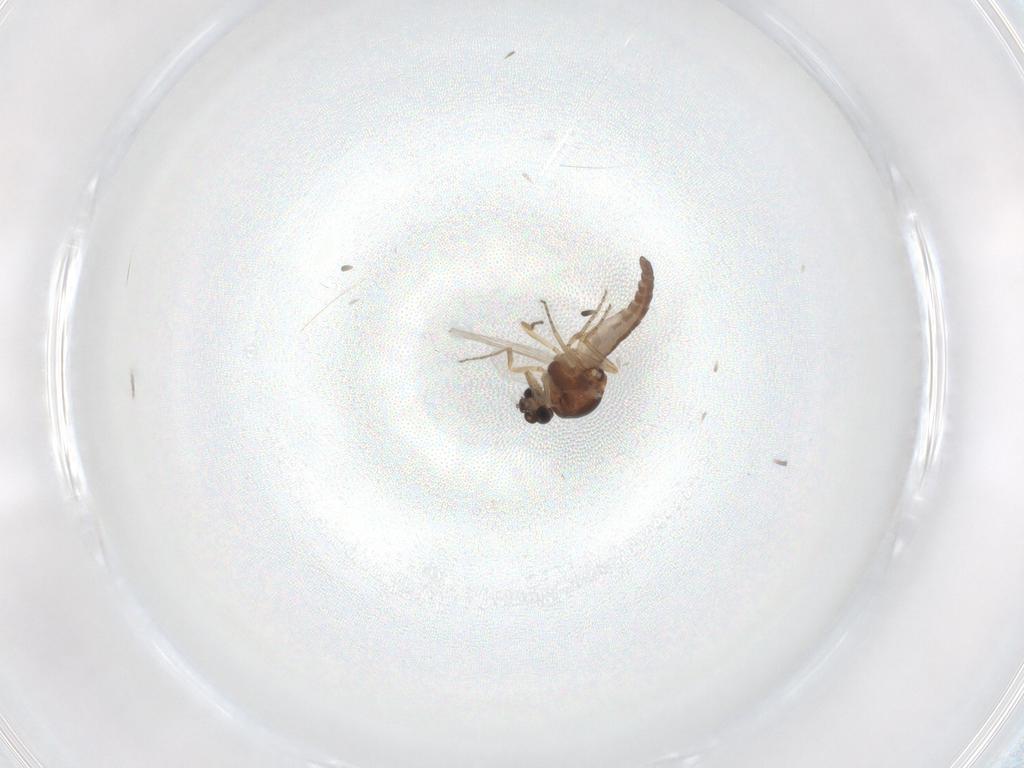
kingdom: Animalia
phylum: Arthropoda
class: Insecta
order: Diptera
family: Ceratopogonidae
